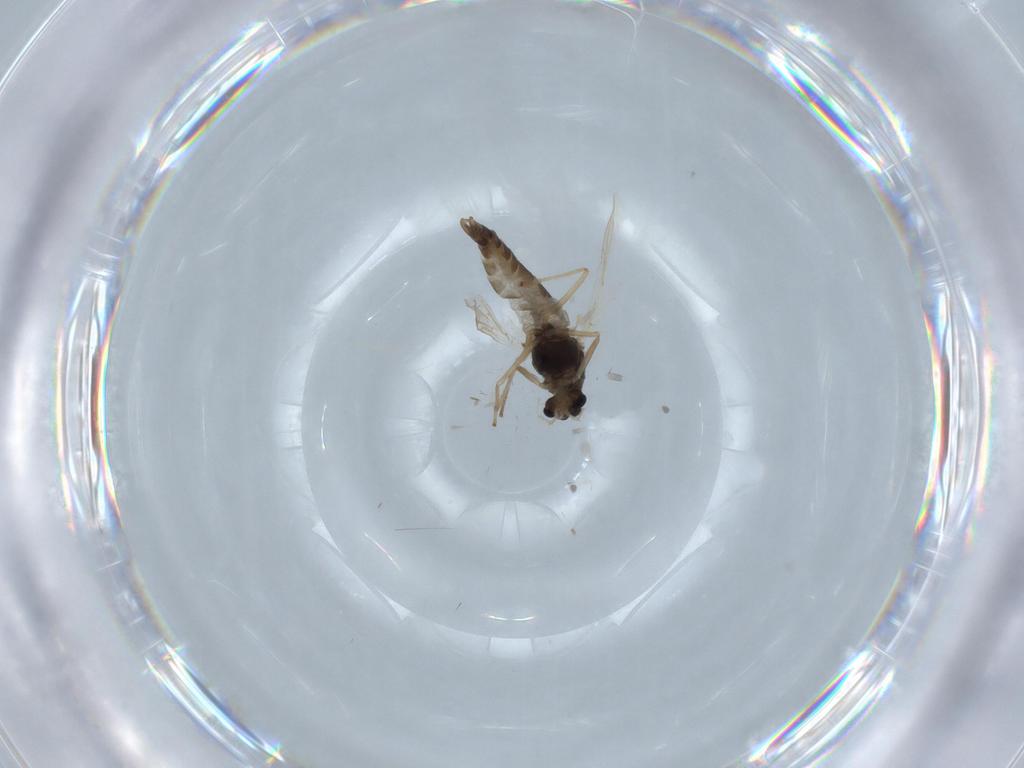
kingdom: Animalia
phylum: Arthropoda
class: Insecta
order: Diptera
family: Chironomidae
